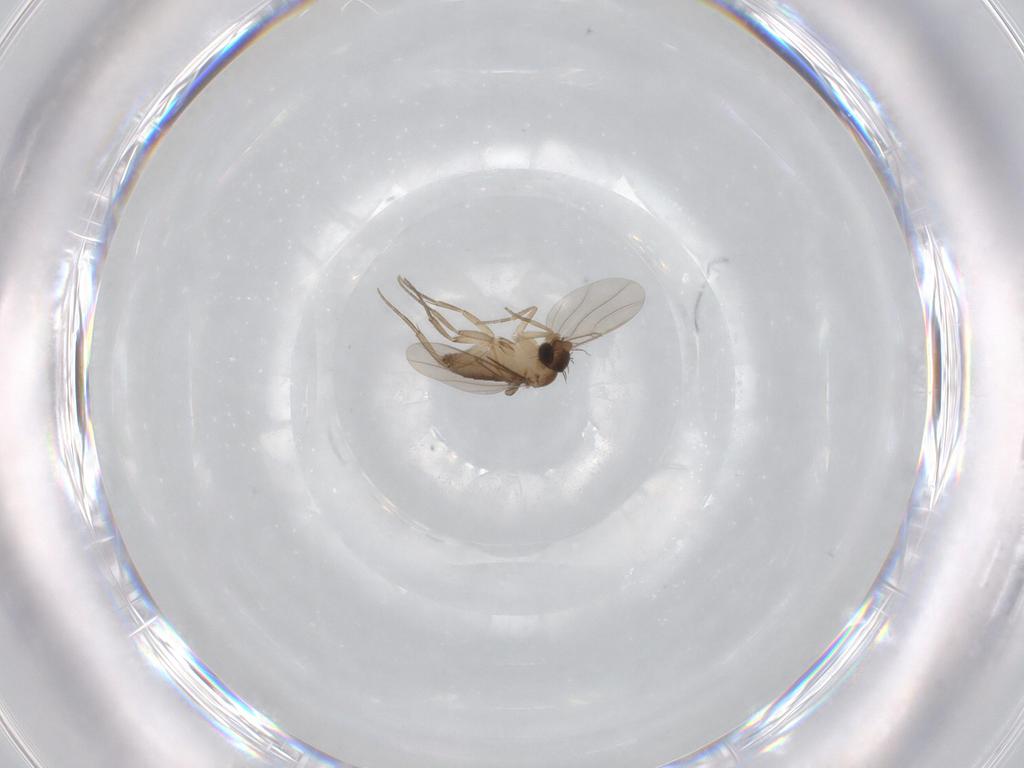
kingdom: Animalia
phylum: Arthropoda
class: Insecta
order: Diptera
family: Phoridae
